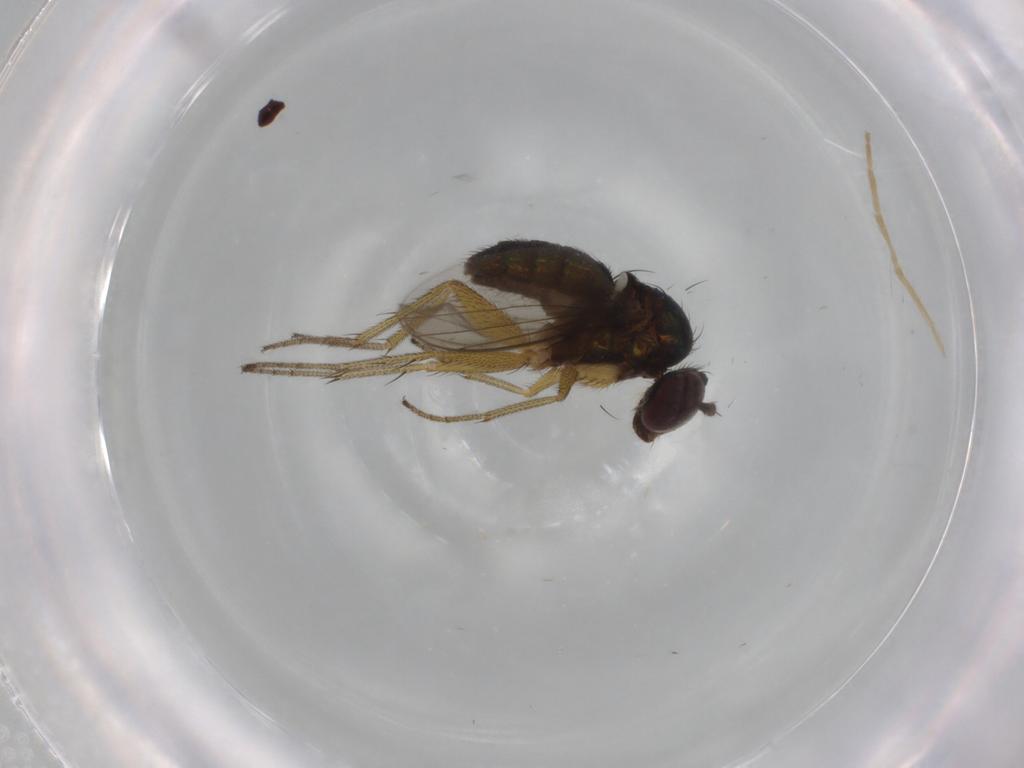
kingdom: Animalia
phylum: Arthropoda
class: Insecta
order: Diptera
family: Dolichopodidae
